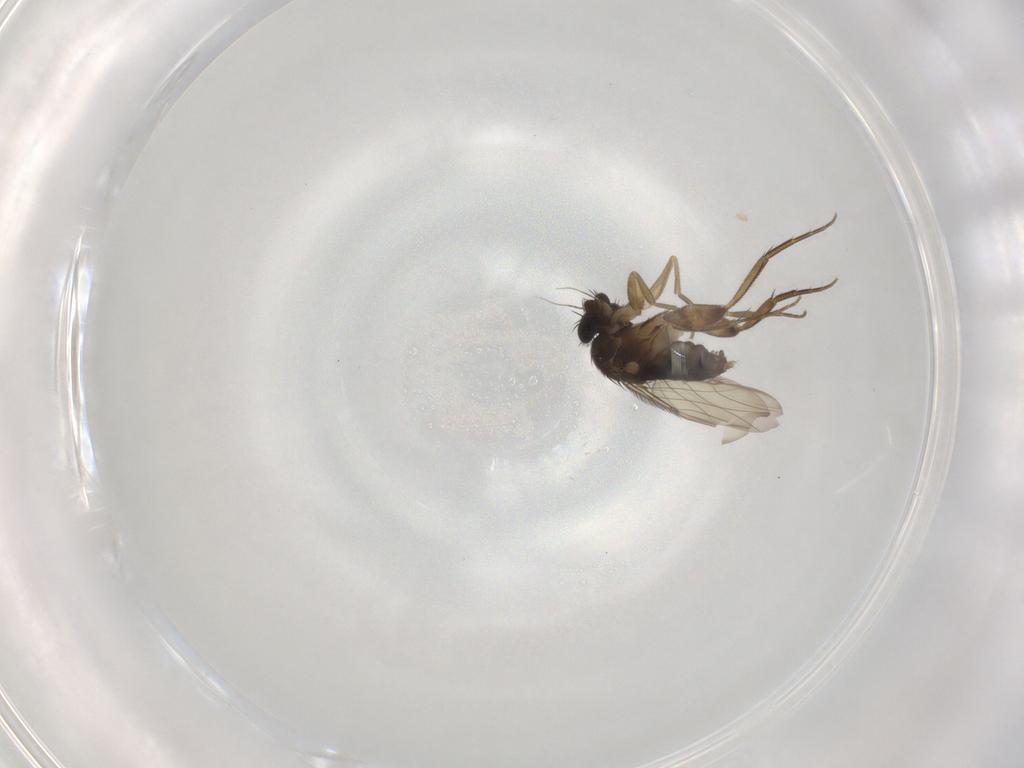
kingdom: Animalia
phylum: Arthropoda
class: Insecta
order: Diptera
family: Phoridae
